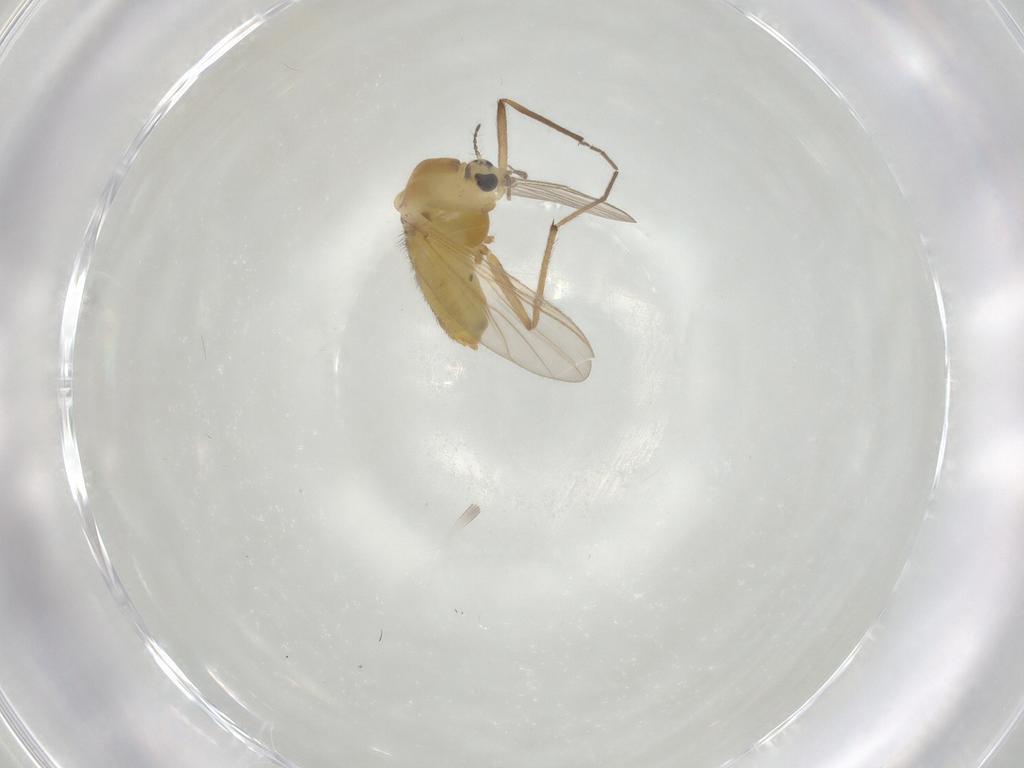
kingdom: Animalia
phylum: Arthropoda
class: Insecta
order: Diptera
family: Chironomidae
